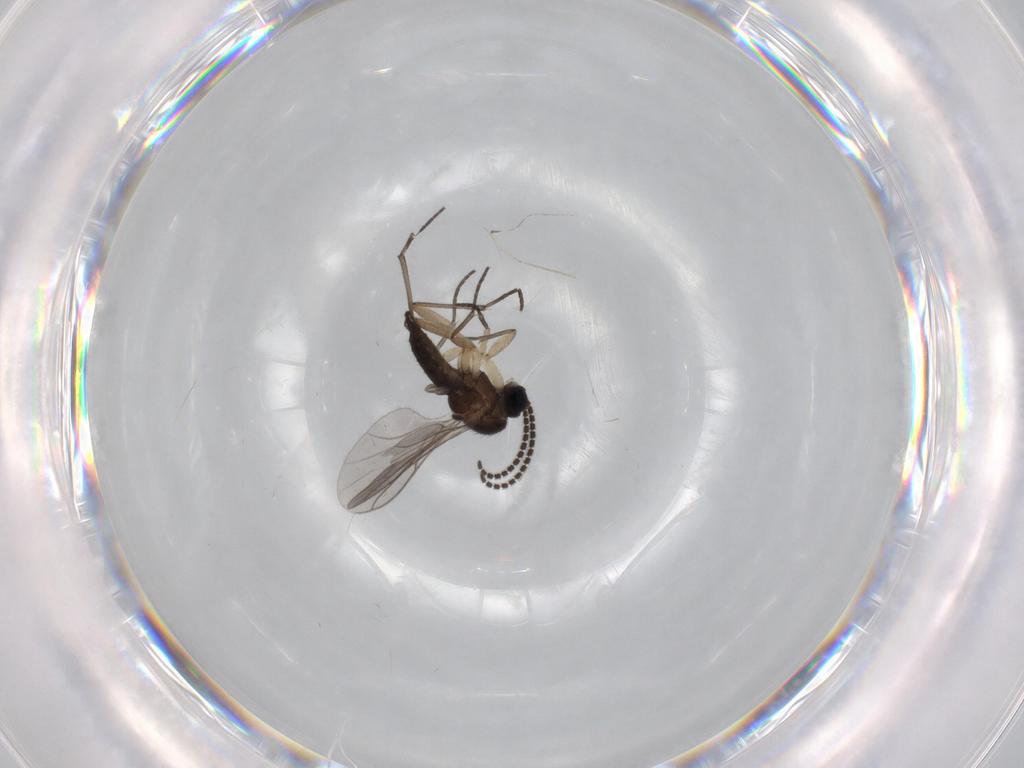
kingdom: Animalia
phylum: Arthropoda
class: Insecta
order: Diptera
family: Sciaridae
